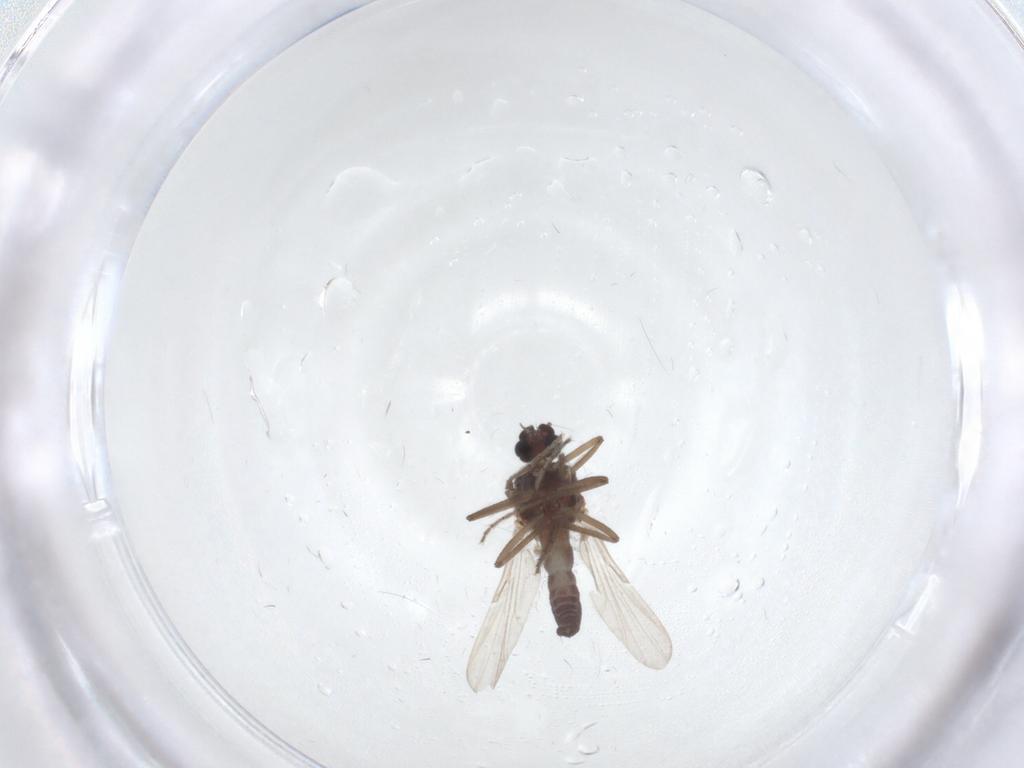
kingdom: Animalia
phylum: Arthropoda
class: Insecta
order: Diptera
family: Ceratopogonidae
